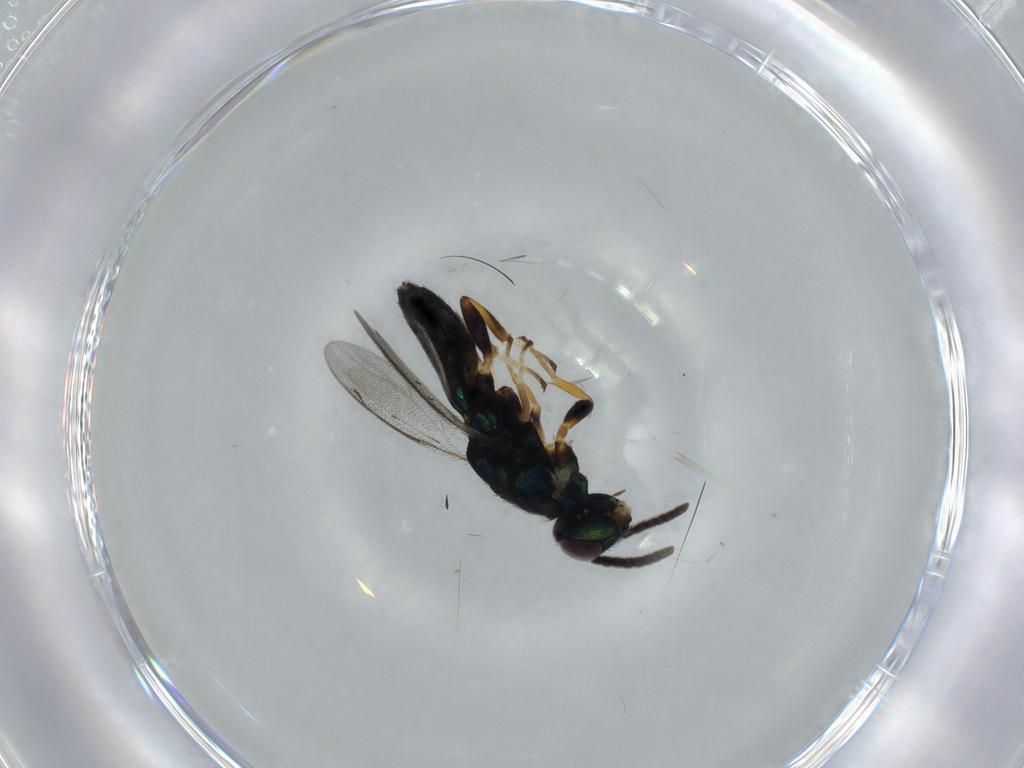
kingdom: Animalia
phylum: Arthropoda
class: Insecta
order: Hymenoptera
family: Eupelmidae
